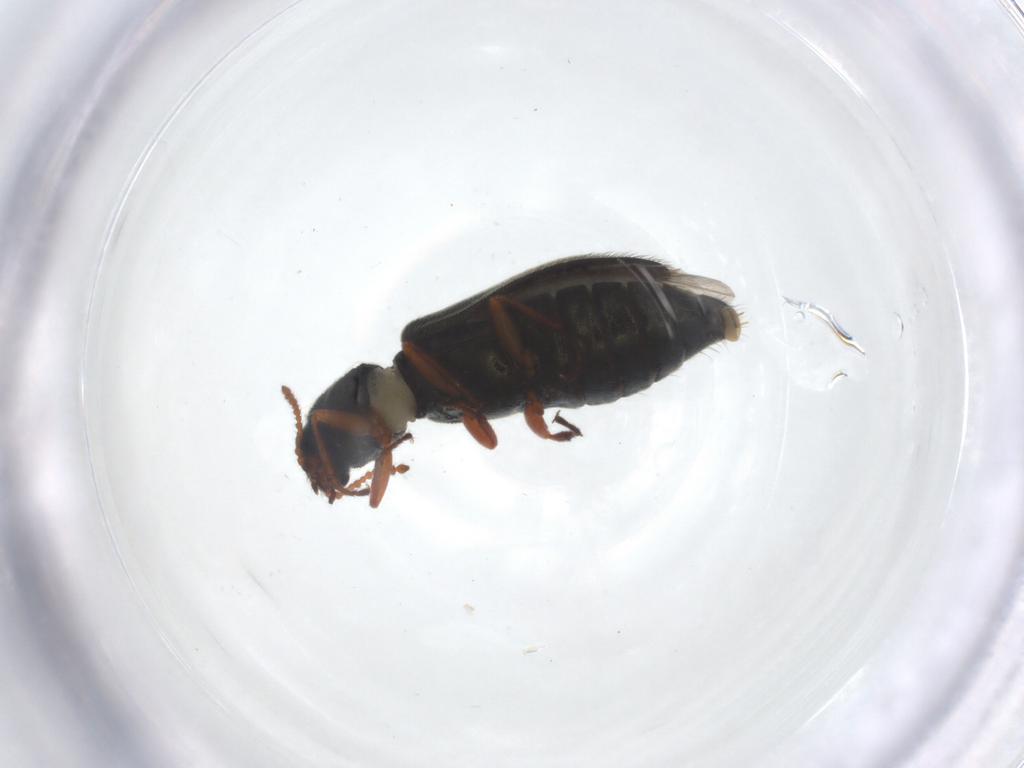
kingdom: Animalia
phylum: Arthropoda
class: Insecta
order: Coleoptera
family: Melyridae
